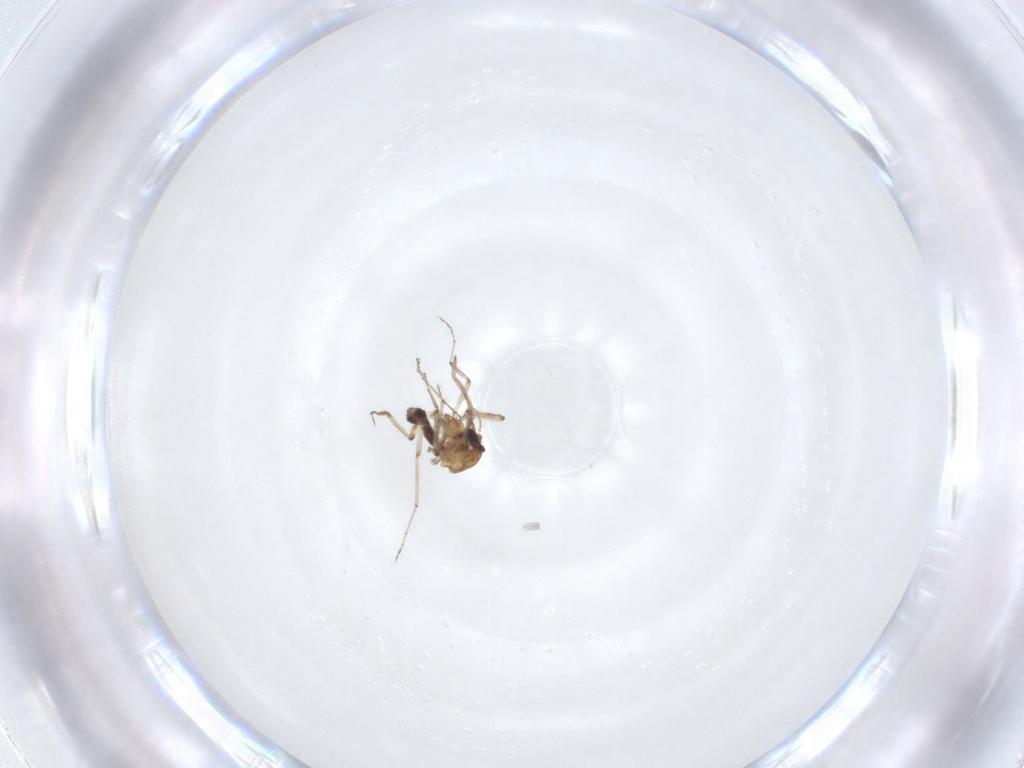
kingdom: Animalia
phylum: Arthropoda
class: Insecta
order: Diptera
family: Ceratopogonidae
